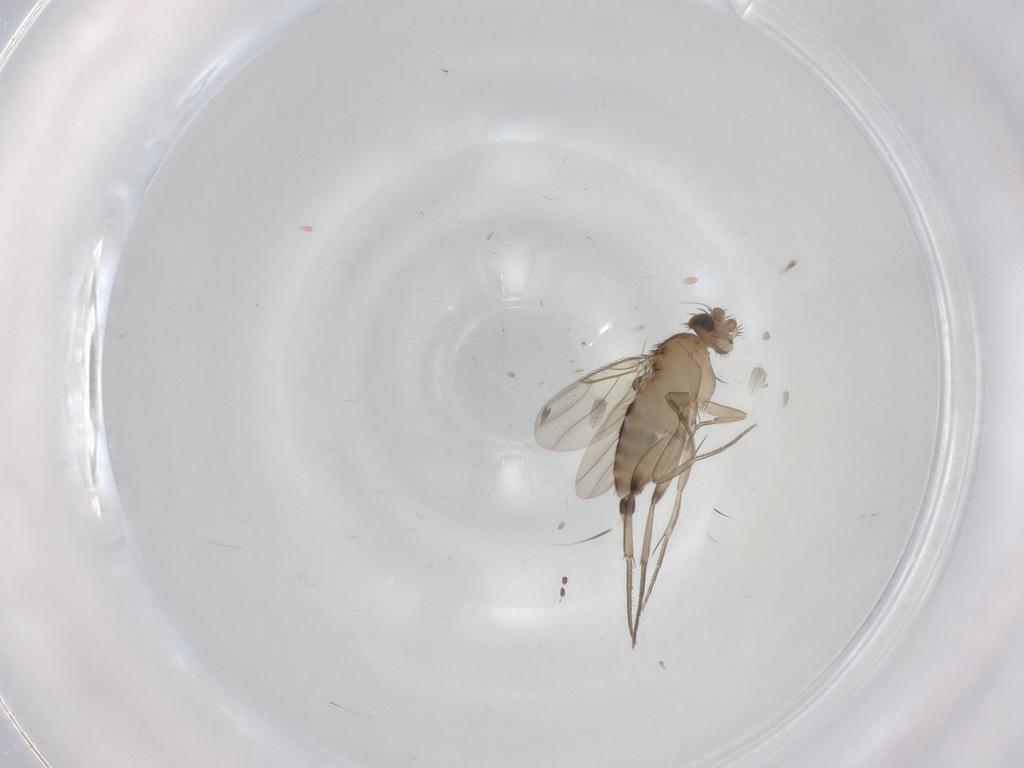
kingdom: Animalia
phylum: Arthropoda
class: Insecta
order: Diptera
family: Cecidomyiidae
